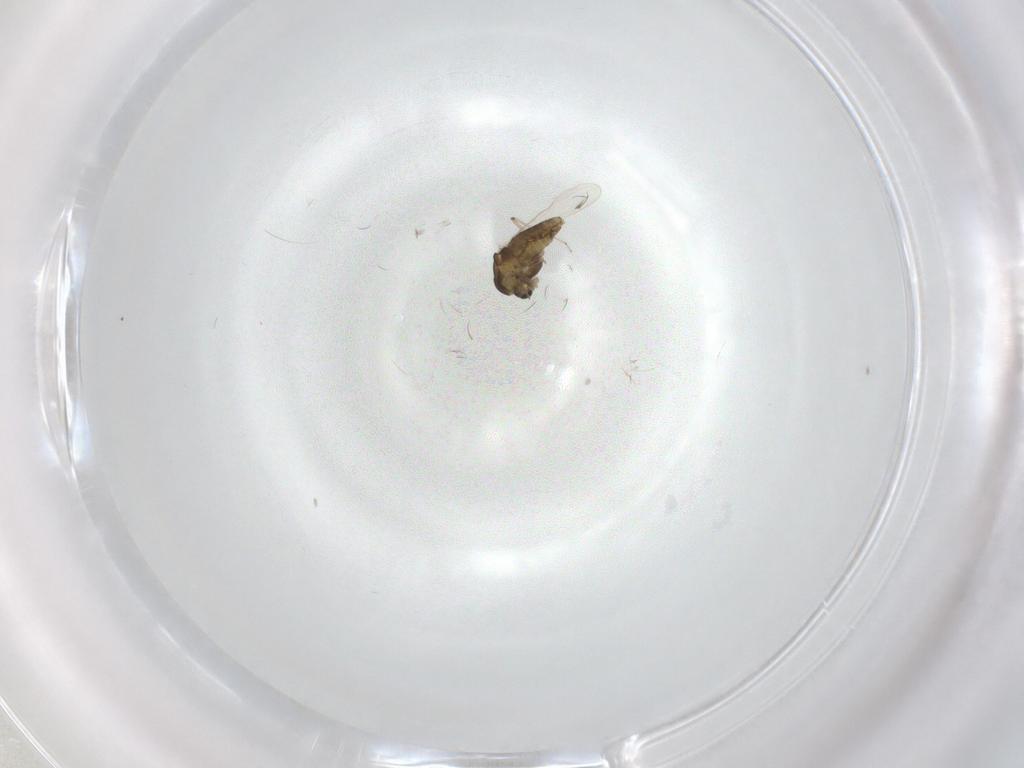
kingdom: Animalia
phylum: Arthropoda
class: Insecta
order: Diptera
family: Chironomidae
